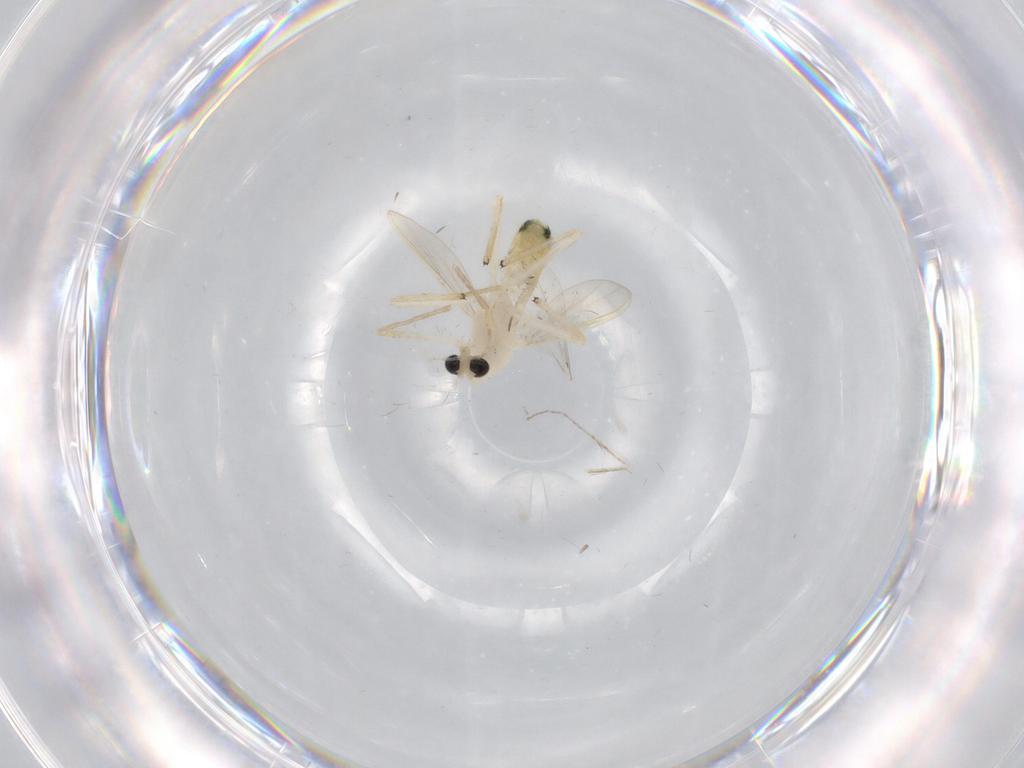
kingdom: Animalia
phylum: Arthropoda
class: Insecta
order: Diptera
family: Chironomidae
